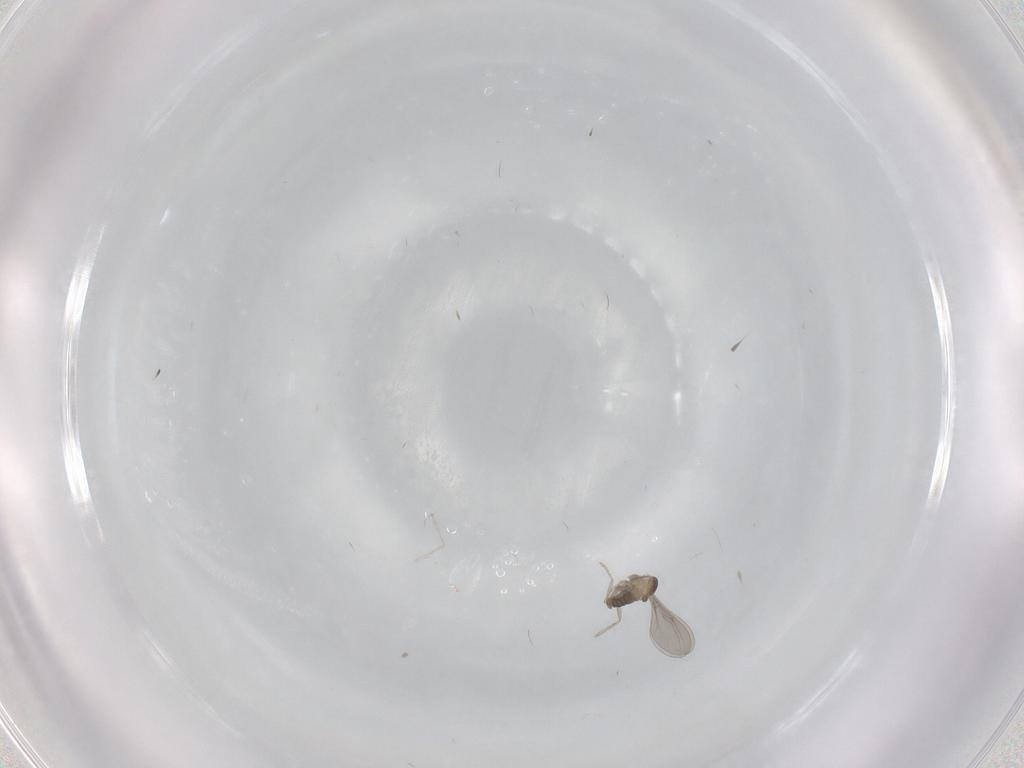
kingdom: Animalia
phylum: Arthropoda
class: Insecta
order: Diptera
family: Cecidomyiidae
